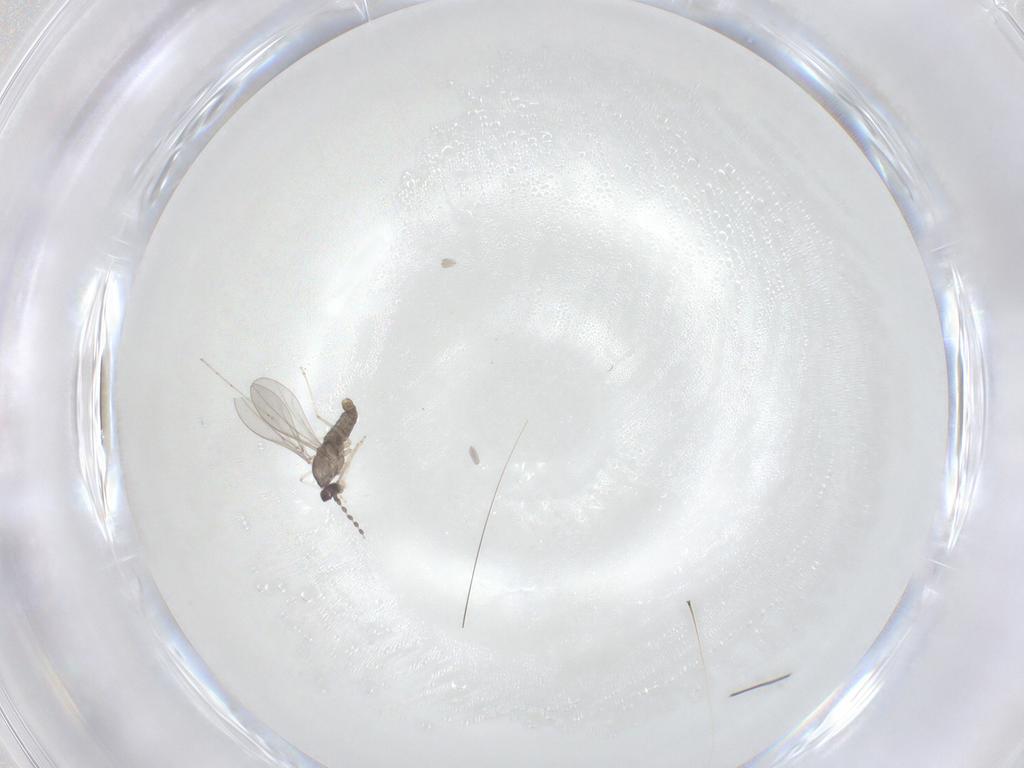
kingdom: Animalia
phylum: Arthropoda
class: Insecta
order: Diptera
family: Cecidomyiidae
